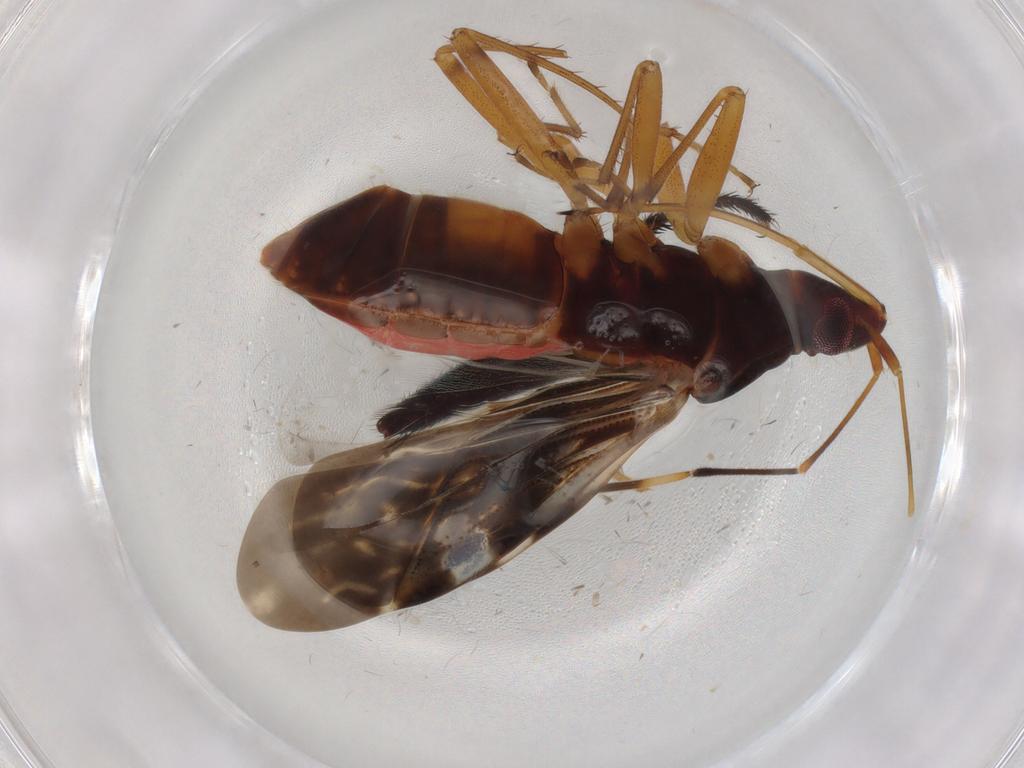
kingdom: Animalia
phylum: Arthropoda
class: Insecta
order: Hemiptera
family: Rhyparochromidae
